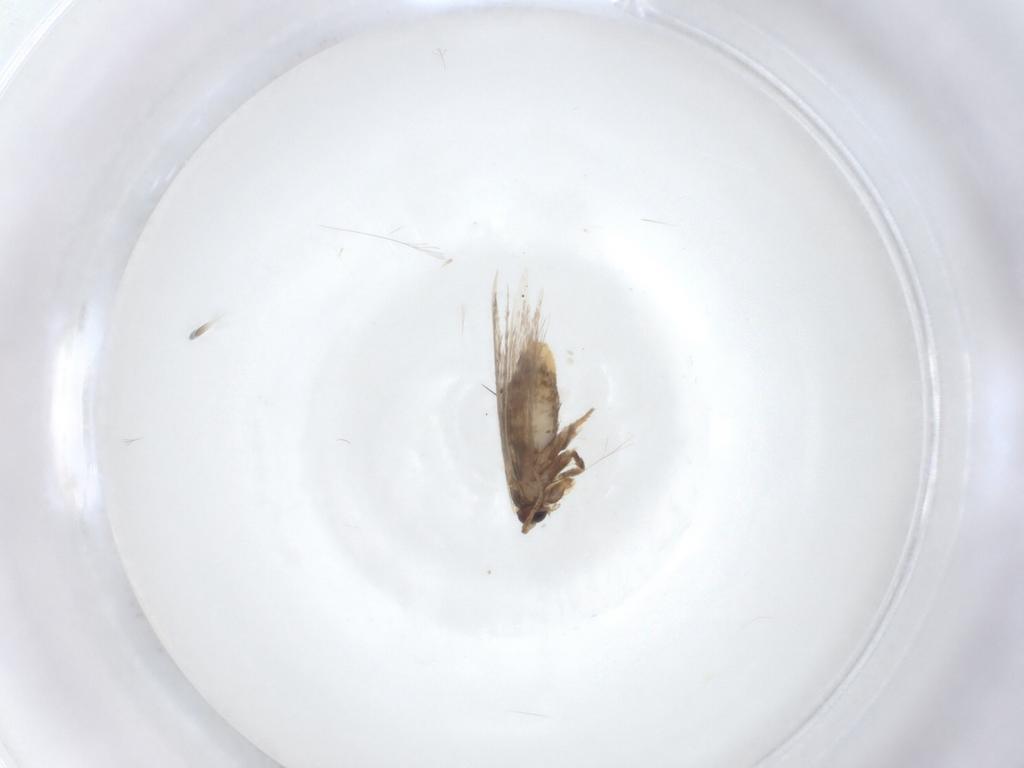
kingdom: Animalia
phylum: Arthropoda
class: Insecta
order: Lepidoptera
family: Nepticulidae
